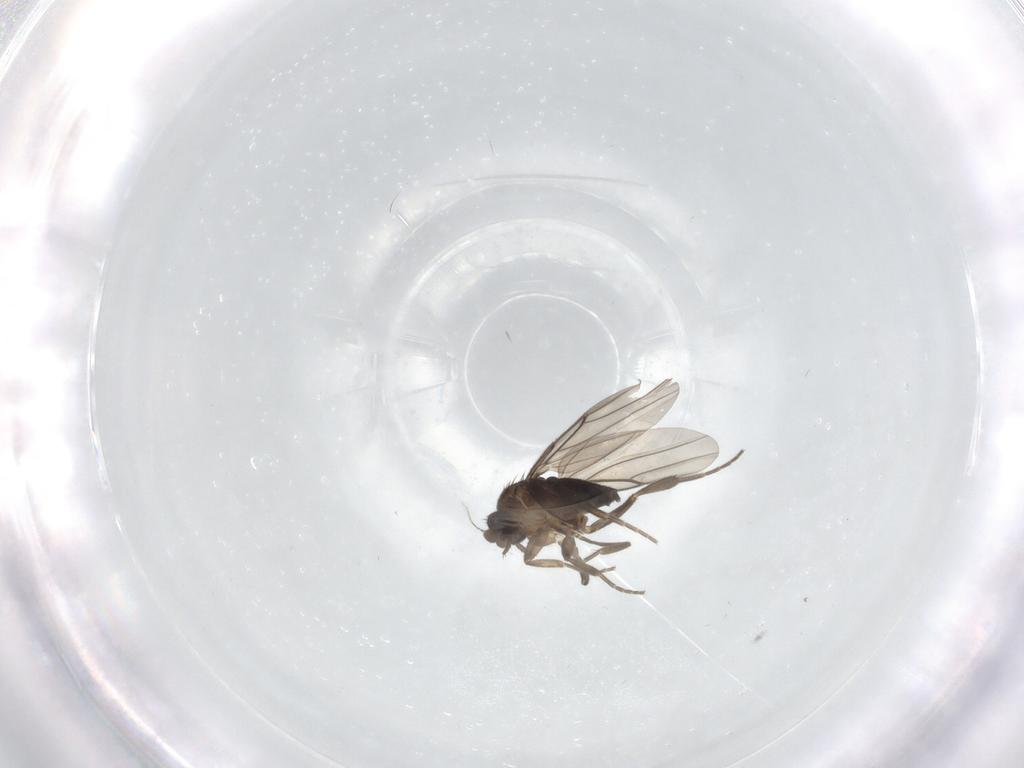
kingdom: Animalia
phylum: Arthropoda
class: Insecta
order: Diptera
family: Phoridae
